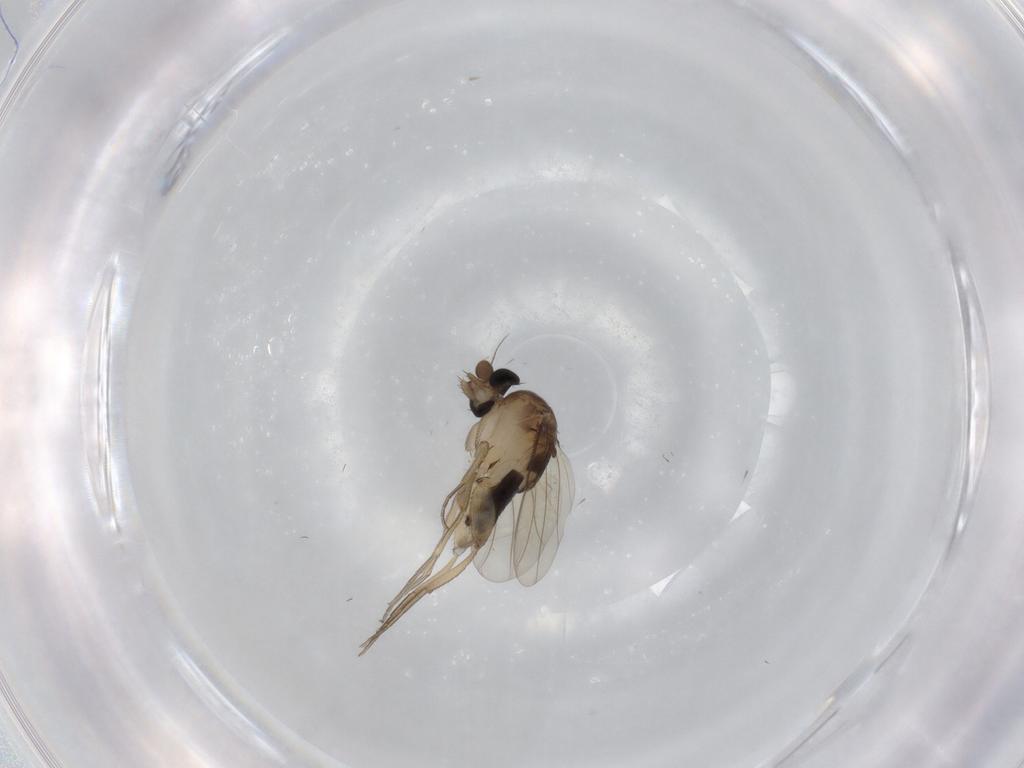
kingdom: Animalia
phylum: Arthropoda
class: Insecta
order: Diptera
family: Phoridae
